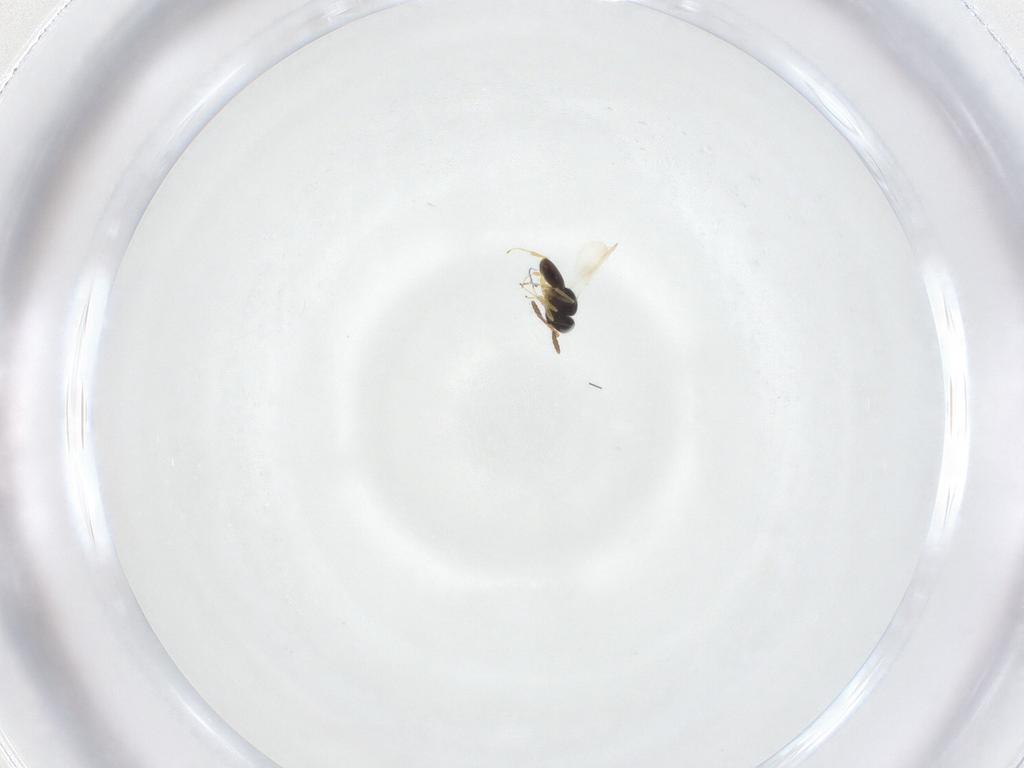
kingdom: Animalia
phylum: Arthropoda
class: Insecta
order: Hymenoptera
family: Scelionidae
